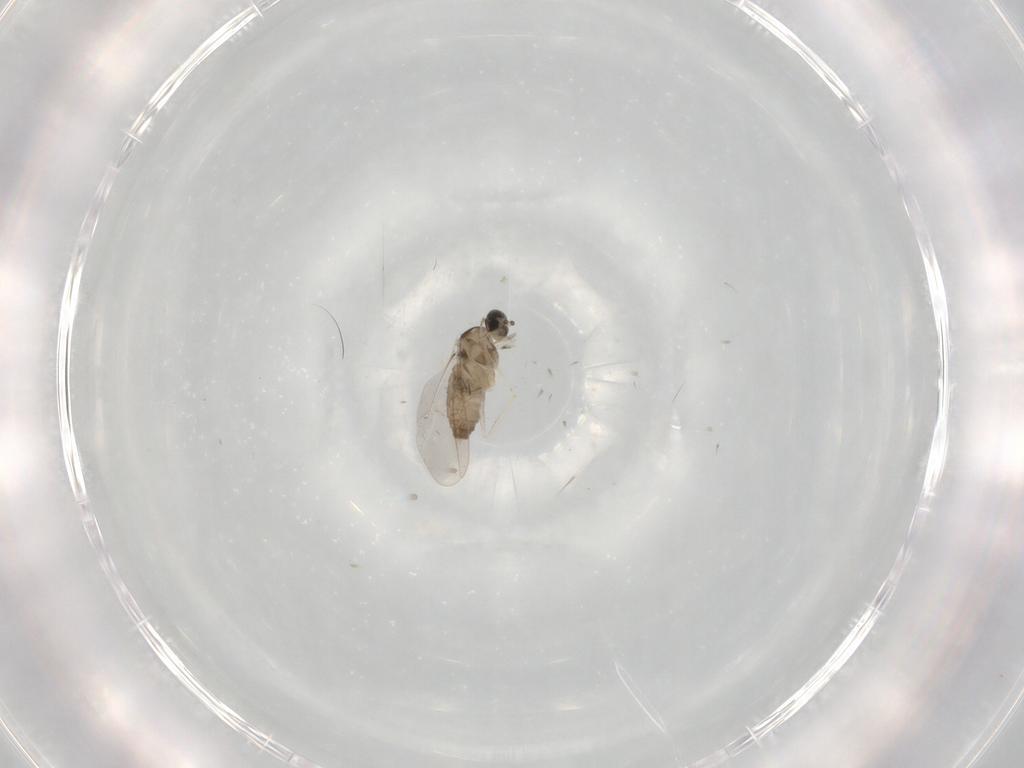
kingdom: Animalia
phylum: Arthropoda
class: Insecta
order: Diptera
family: Cecidomyiidae
